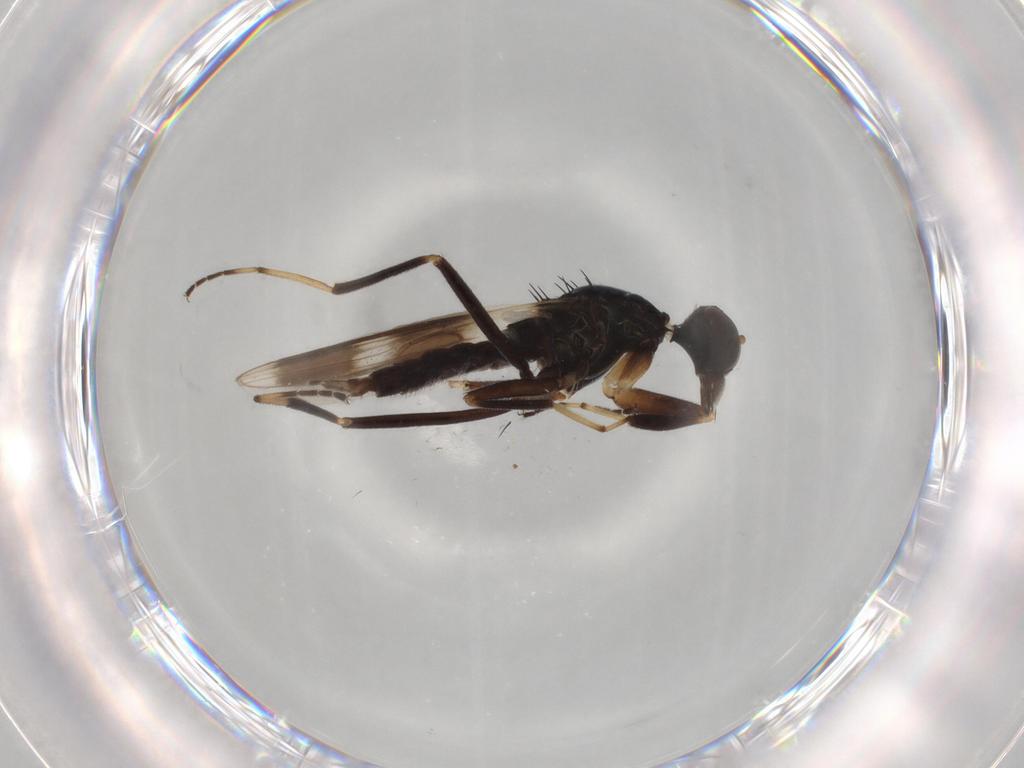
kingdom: Animalia
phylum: Arthropoda
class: Insecta
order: Diptera
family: Hybotidae
